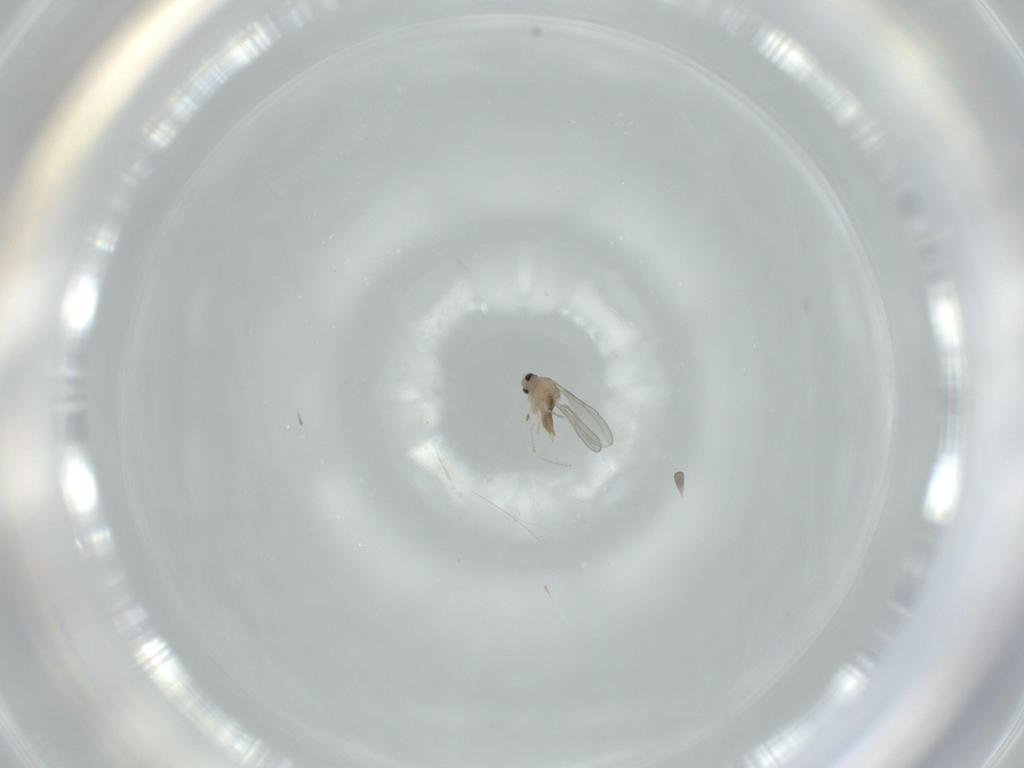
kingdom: Animalia
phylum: Arthropoda
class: Insecta
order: Diptera
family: Cecidomyiidae
